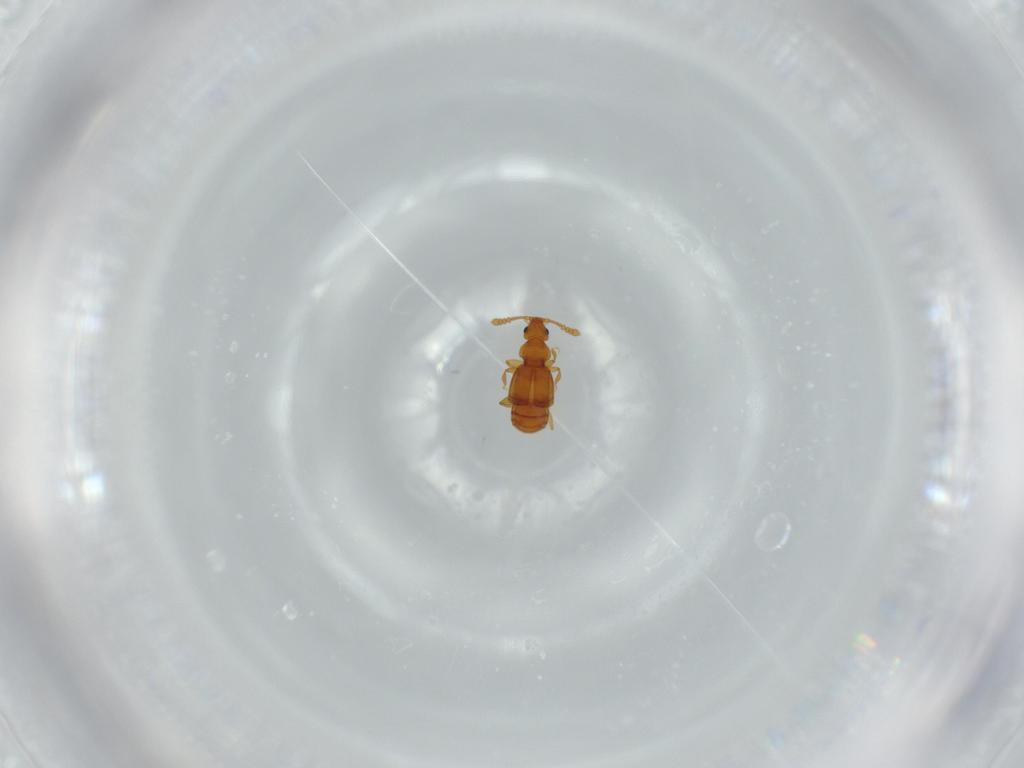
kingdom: Animalia
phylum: Arthropoda
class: Insecta
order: Coleoptera
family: Staphylinidae
